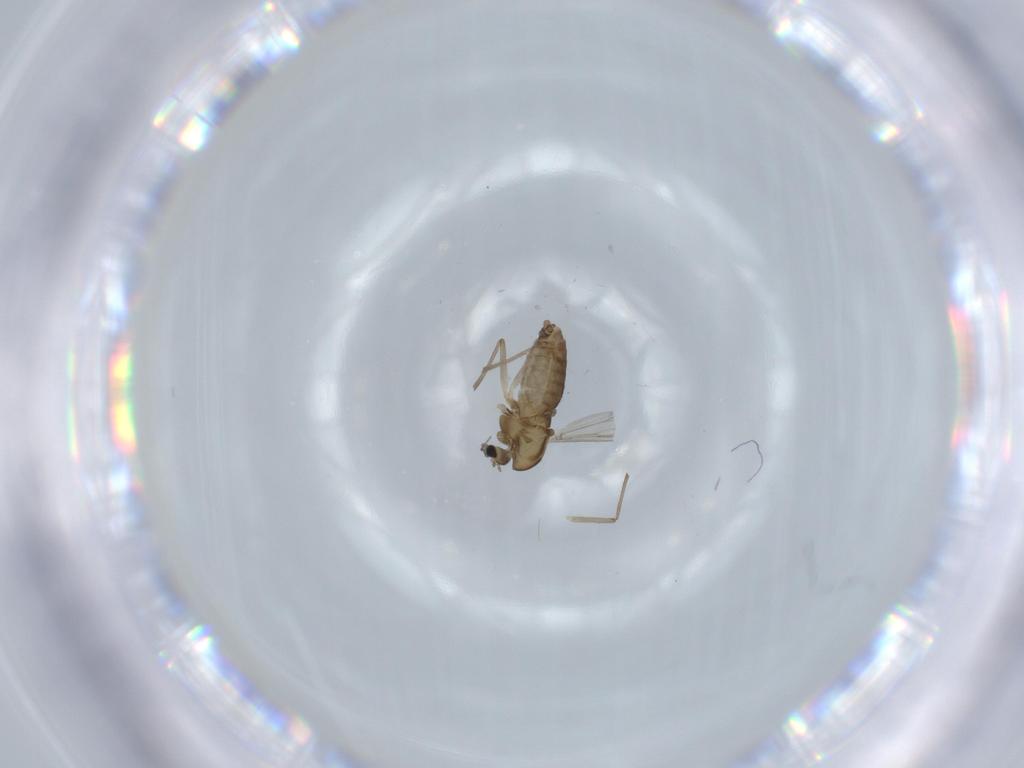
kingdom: Animalia
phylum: Arthropoda
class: Insecta
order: Diptera
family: Chironomidae
